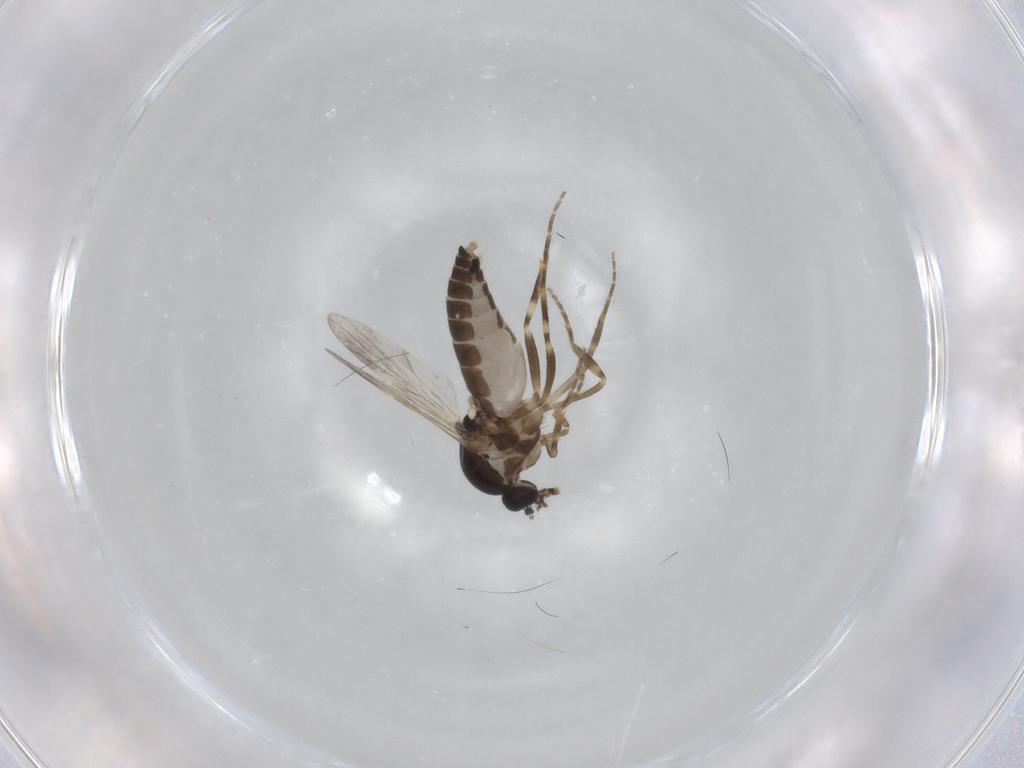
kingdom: Animalia
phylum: Arthropoda
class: Insecta
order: Diptera
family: Ceratopogonidae
